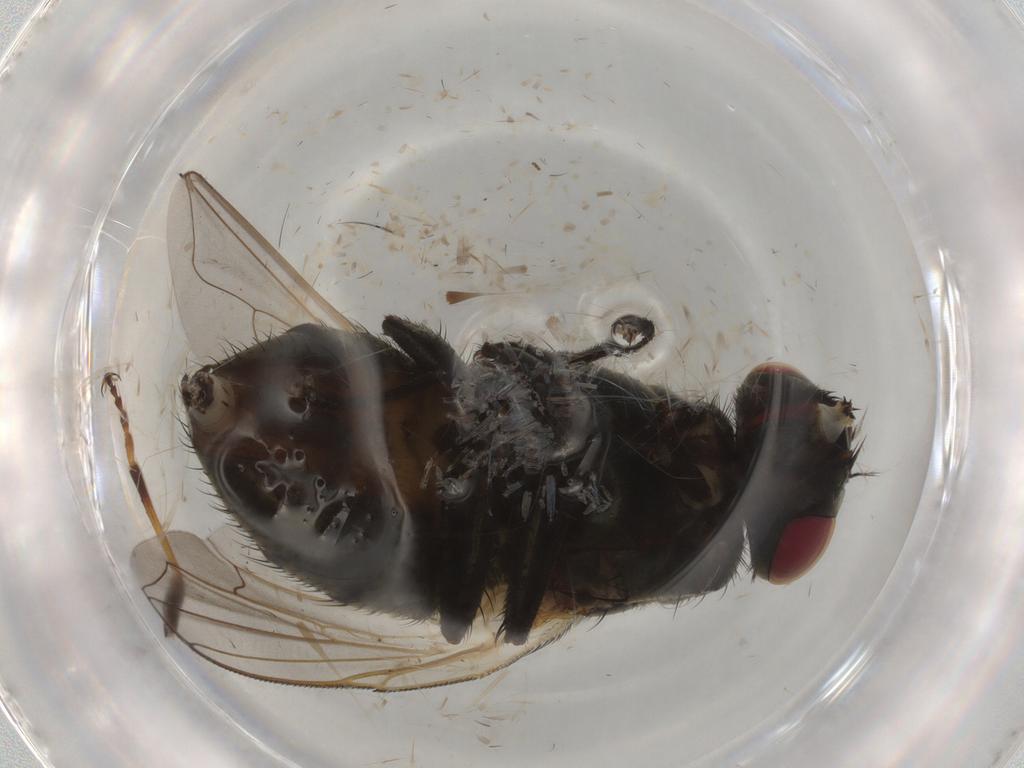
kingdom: Animalia
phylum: Arthropoda
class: Insecta
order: Diptera
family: Muscidae
